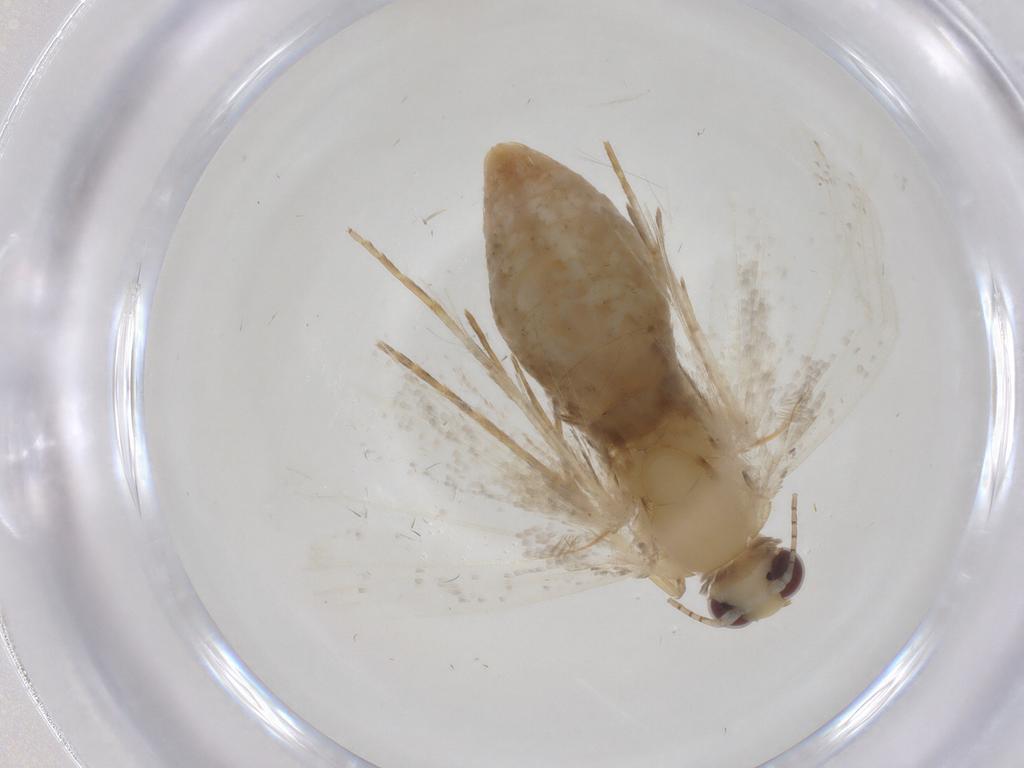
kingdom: Animalia
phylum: Arthropoda
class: Insecta
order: Lepidoptera
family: Erebidae
